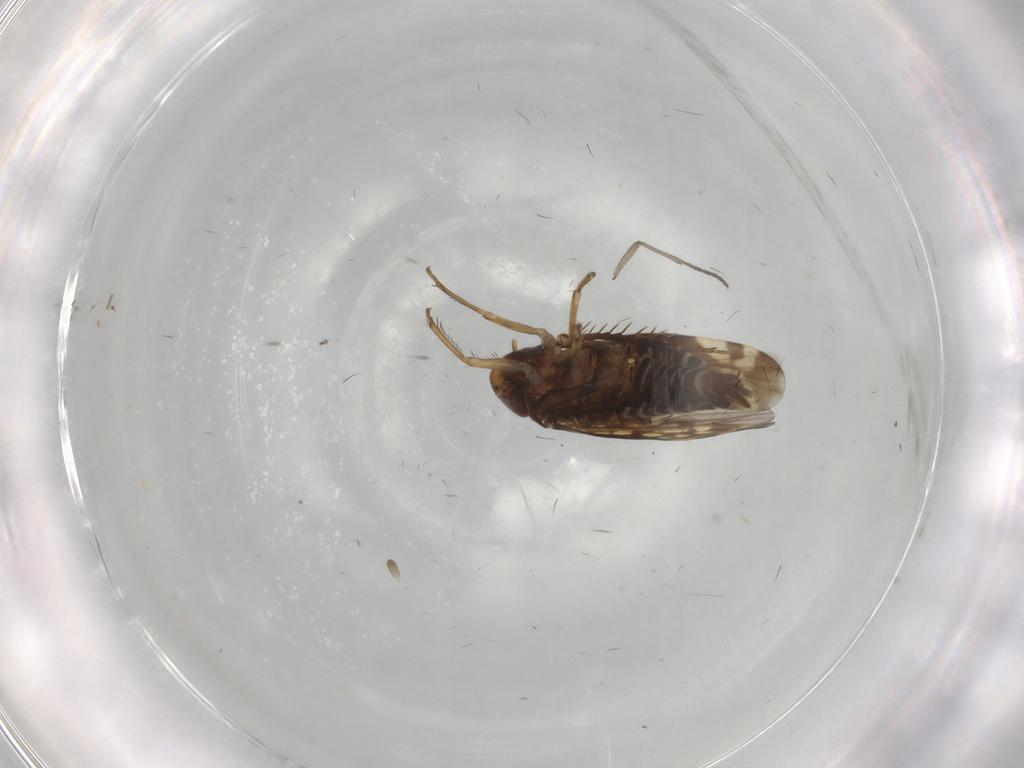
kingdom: Animalia
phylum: Arthropoda
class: Insecta
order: Hemiptera
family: Cicadellidae
